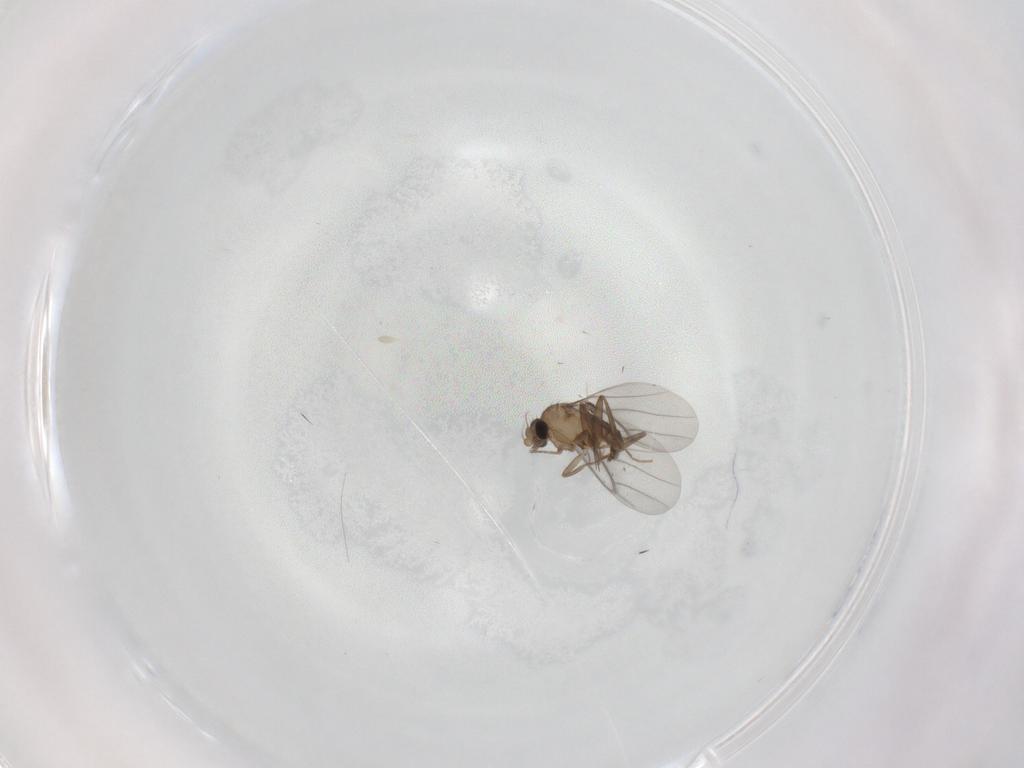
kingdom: Animalia
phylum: Arthropoda
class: Insecta
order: Diptera
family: Cecidomyiidae
